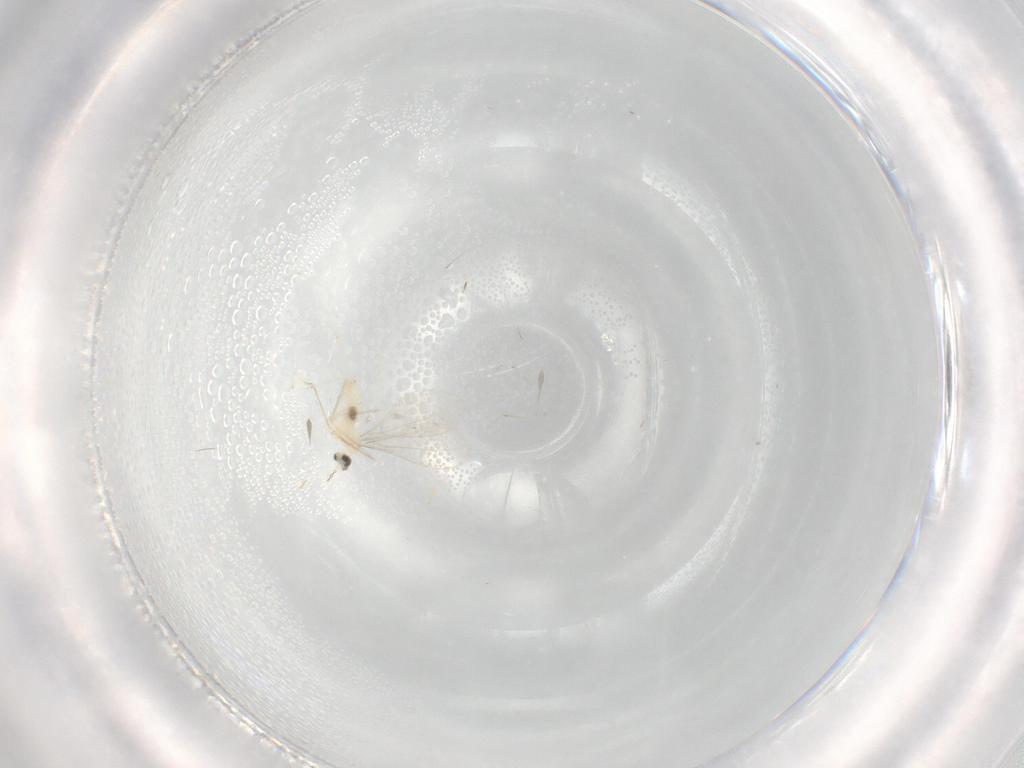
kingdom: Animalia
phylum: Arthropoda
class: Insecta
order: Diptera
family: Cecidomyiidae
